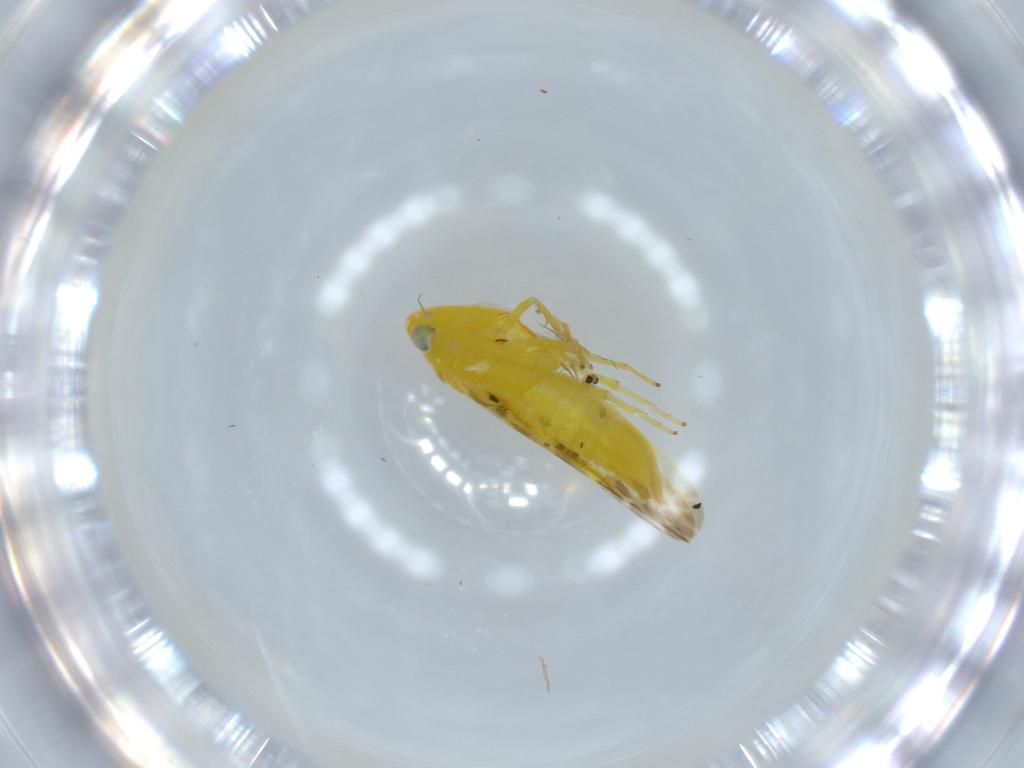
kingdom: Animalia
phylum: Arthropoda
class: Insecta
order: Hemiptera
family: Cicadellidae
